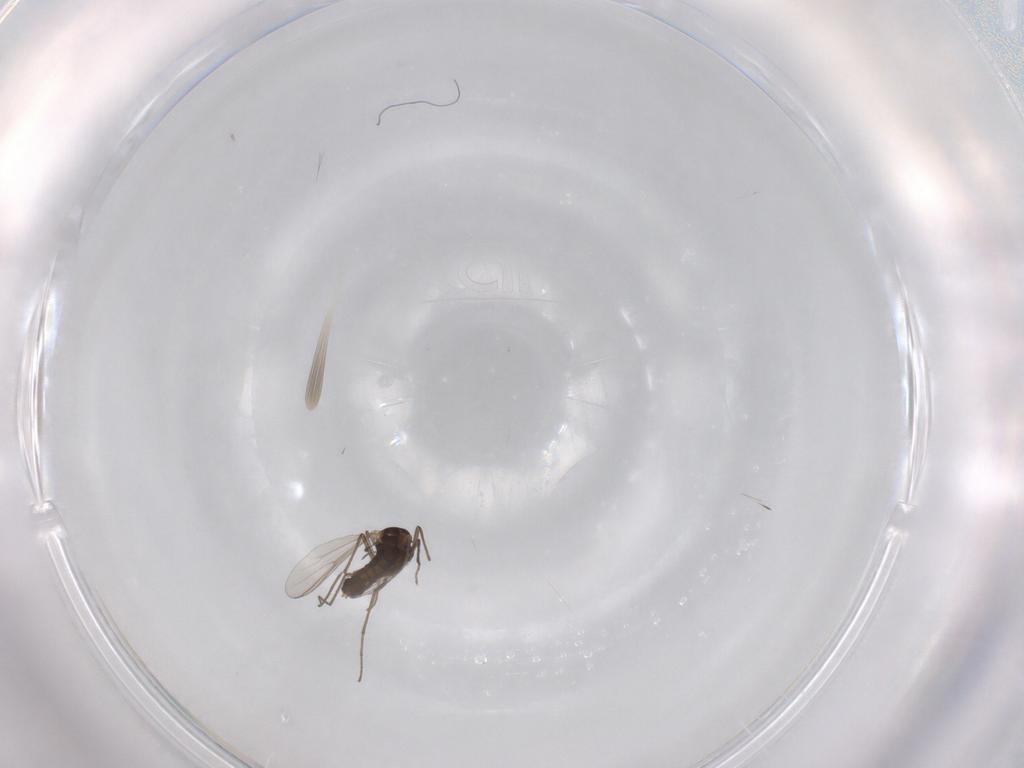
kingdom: Animalia
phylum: Arthropoda
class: Insecta
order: Diptera
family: Chironomidae
